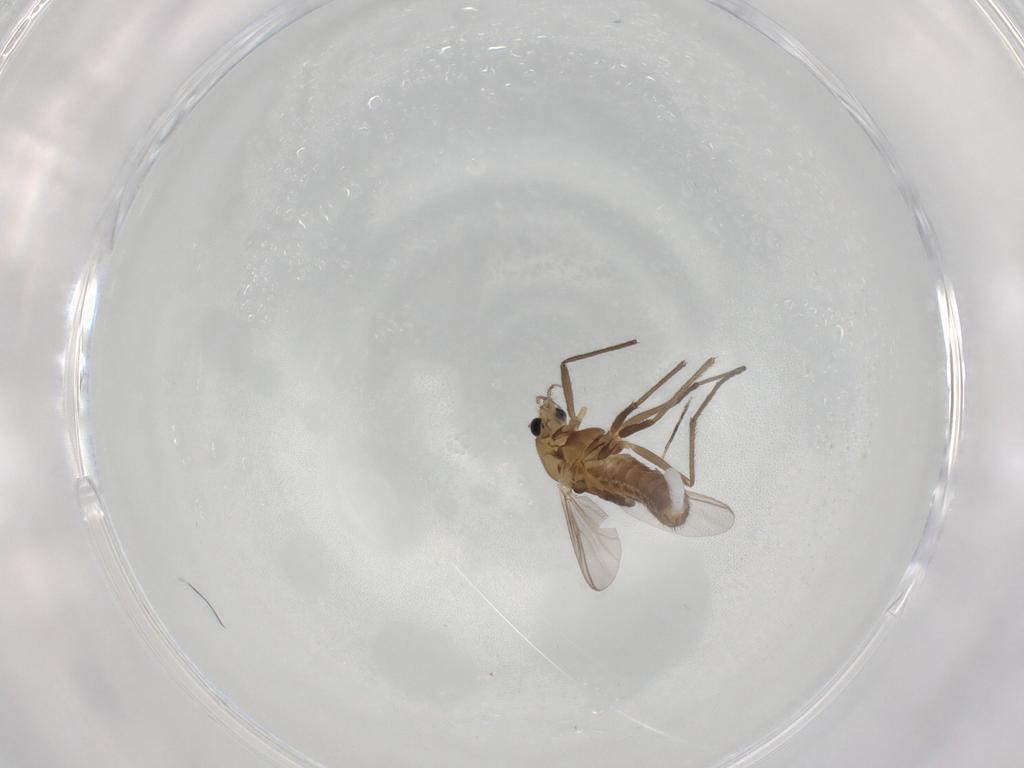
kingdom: Animalia
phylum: Arthropoda
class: Insecta
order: Diptera
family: Chironomidae
